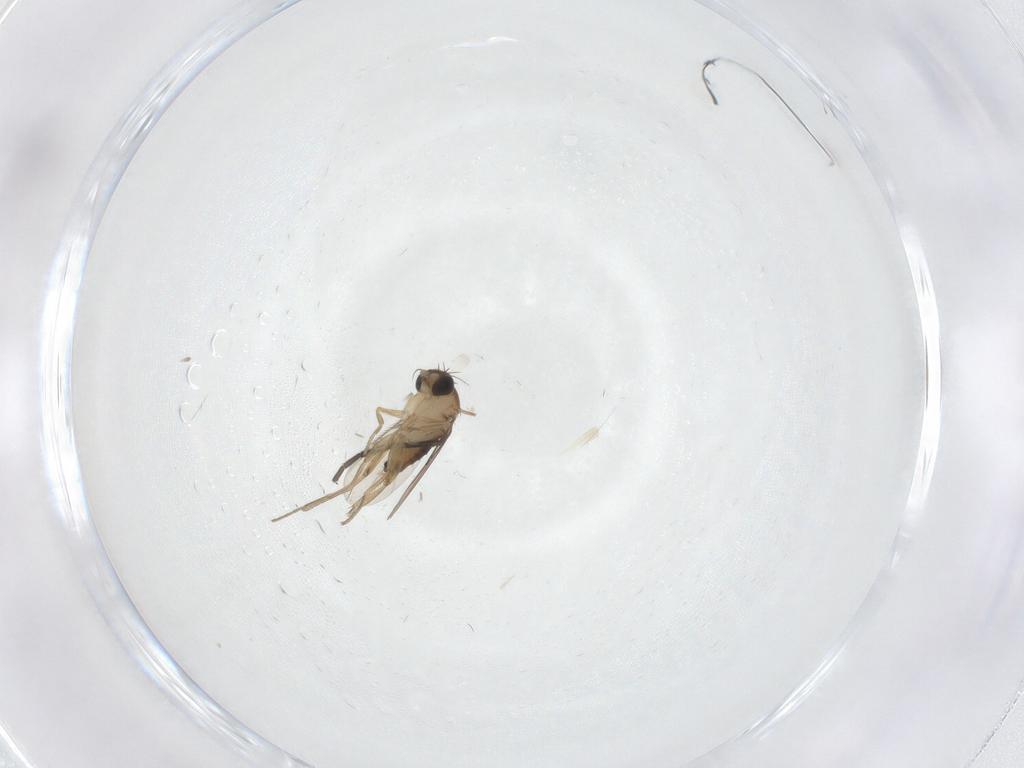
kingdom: Animalia
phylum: Arthropoda
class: Insecta
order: Diptera
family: Phoridae
